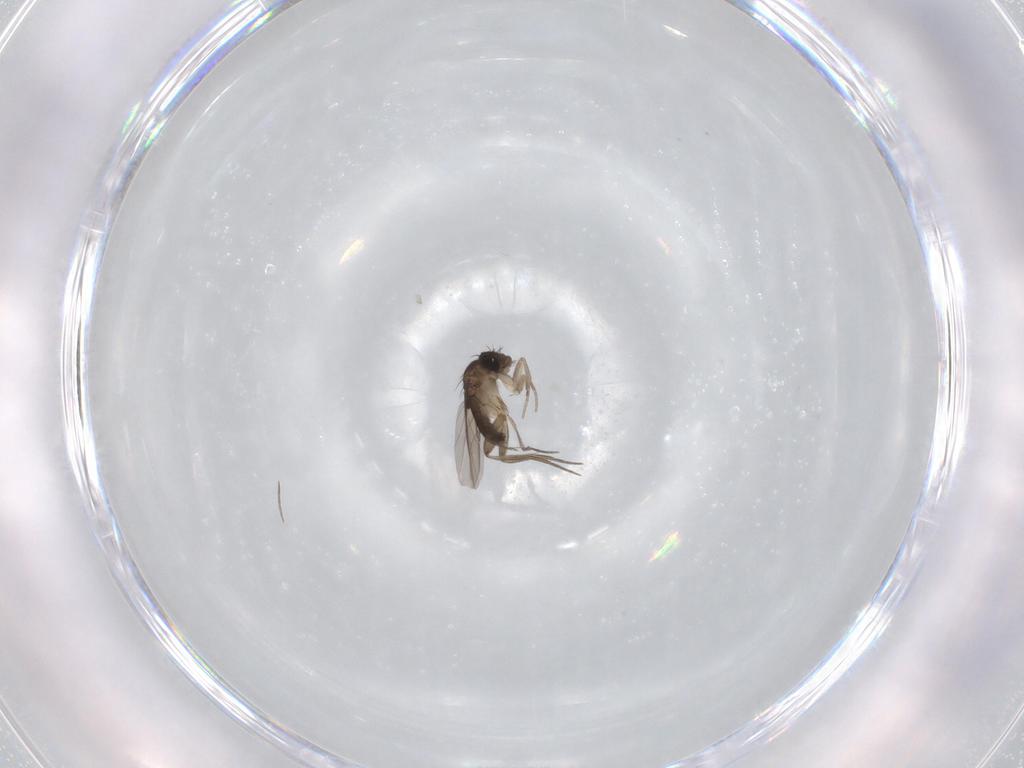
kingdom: Animalia
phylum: Arthropoda
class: Insecta
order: Diptera
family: Phoridae
